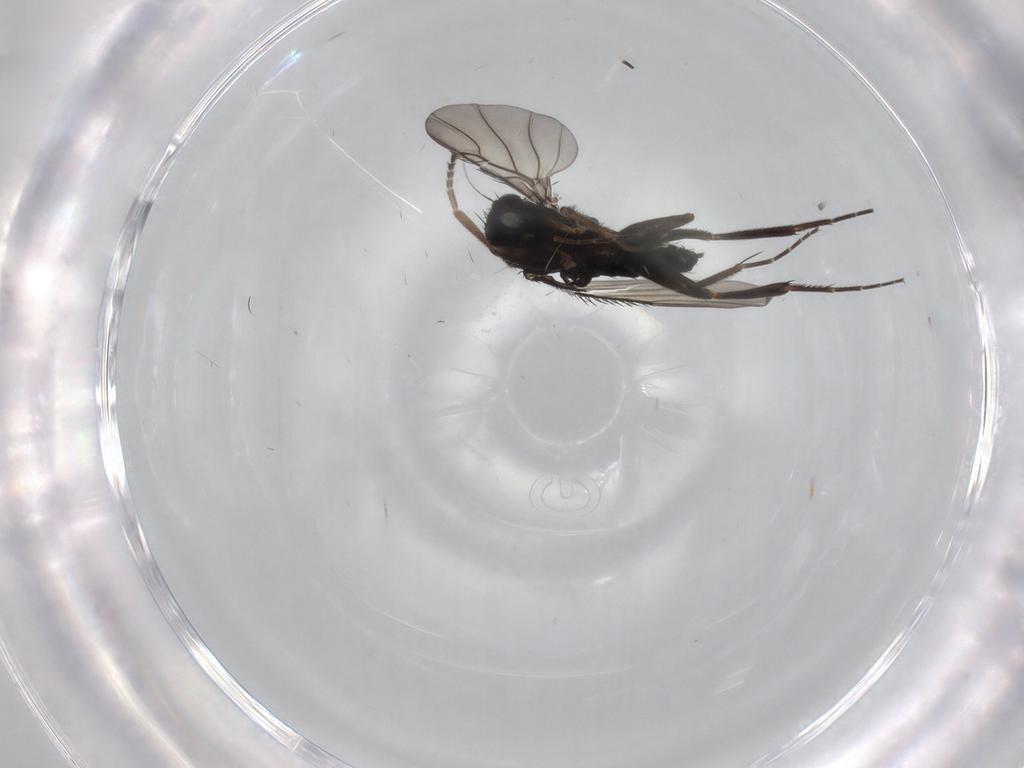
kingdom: Animalia
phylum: Arthropoda
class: Insecta
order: Diptera
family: Phoridae
